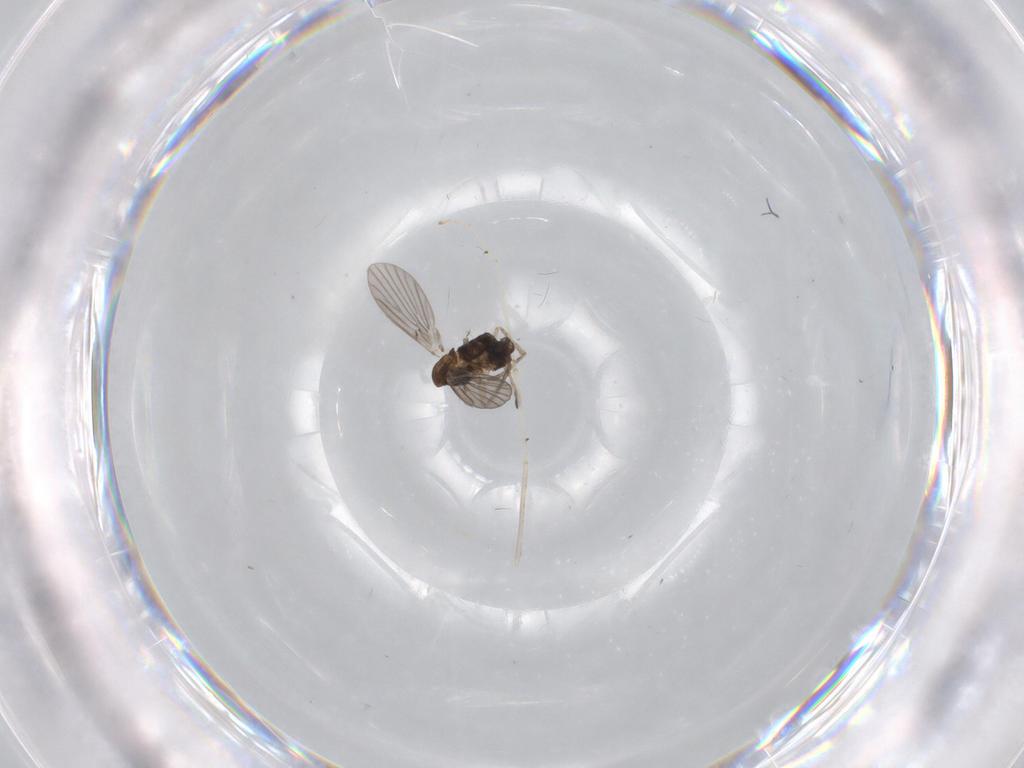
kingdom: Animalia
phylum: Arthropoda
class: Insecta
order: Diptera
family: Cecidomyiidae
